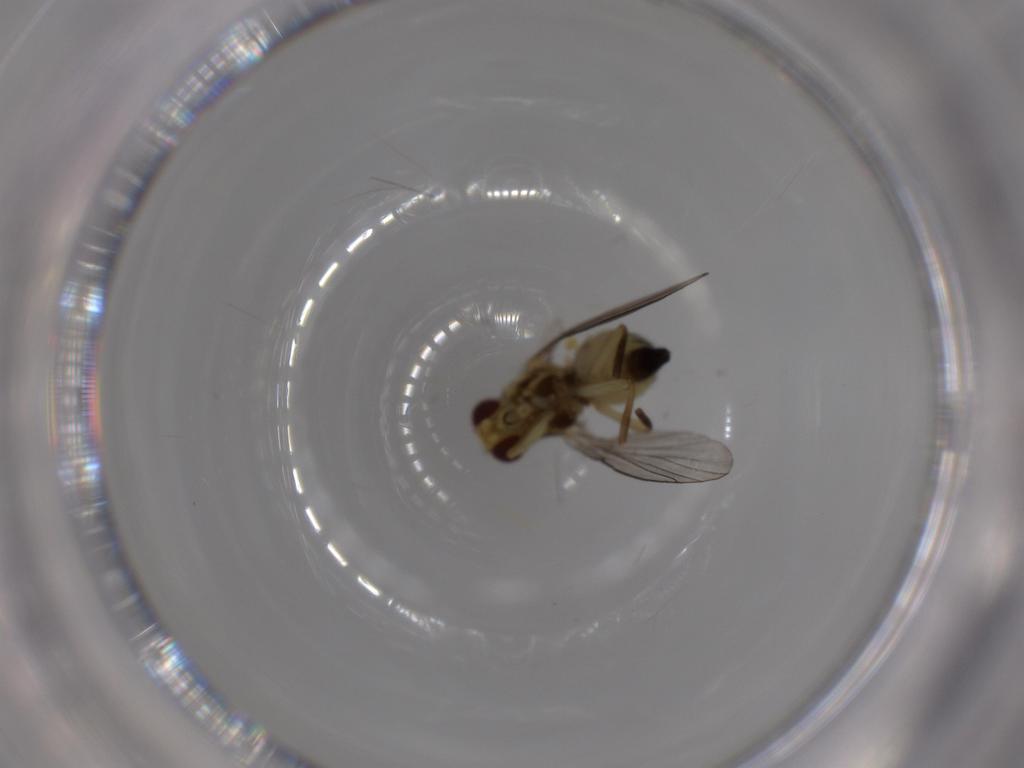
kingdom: Animalia
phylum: Arthropoda
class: Insecta
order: Diptera
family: Agromyzidae
